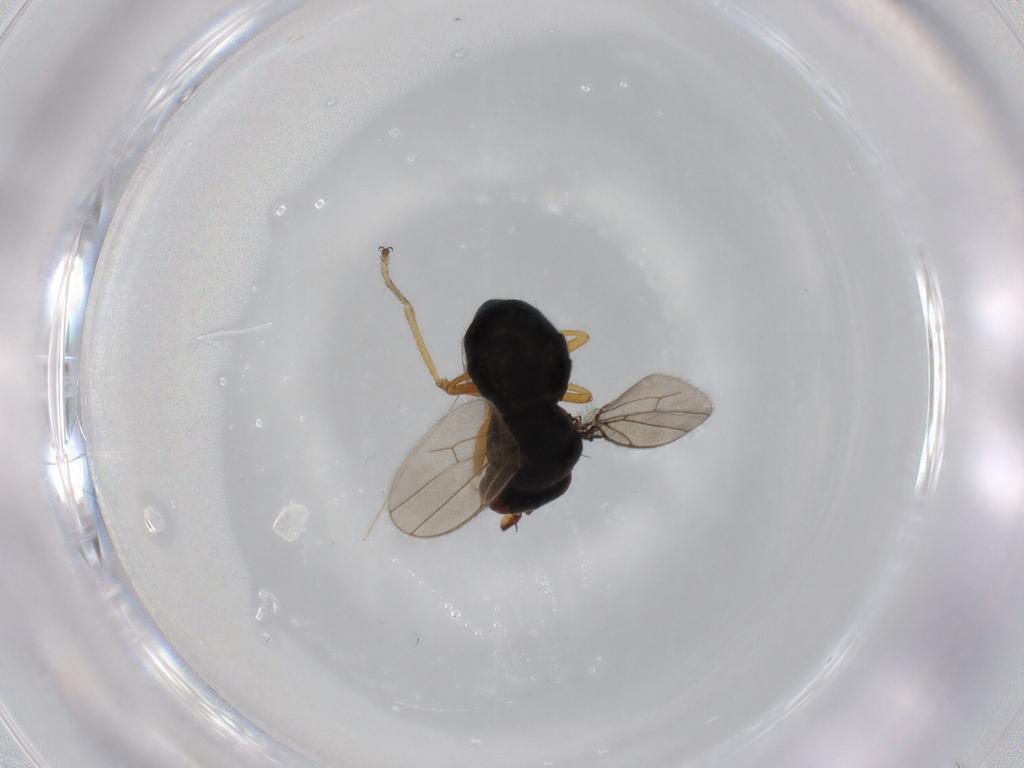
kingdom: Animalia
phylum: Arthropoda
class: Insecta
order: Diptera
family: Ephydridae
